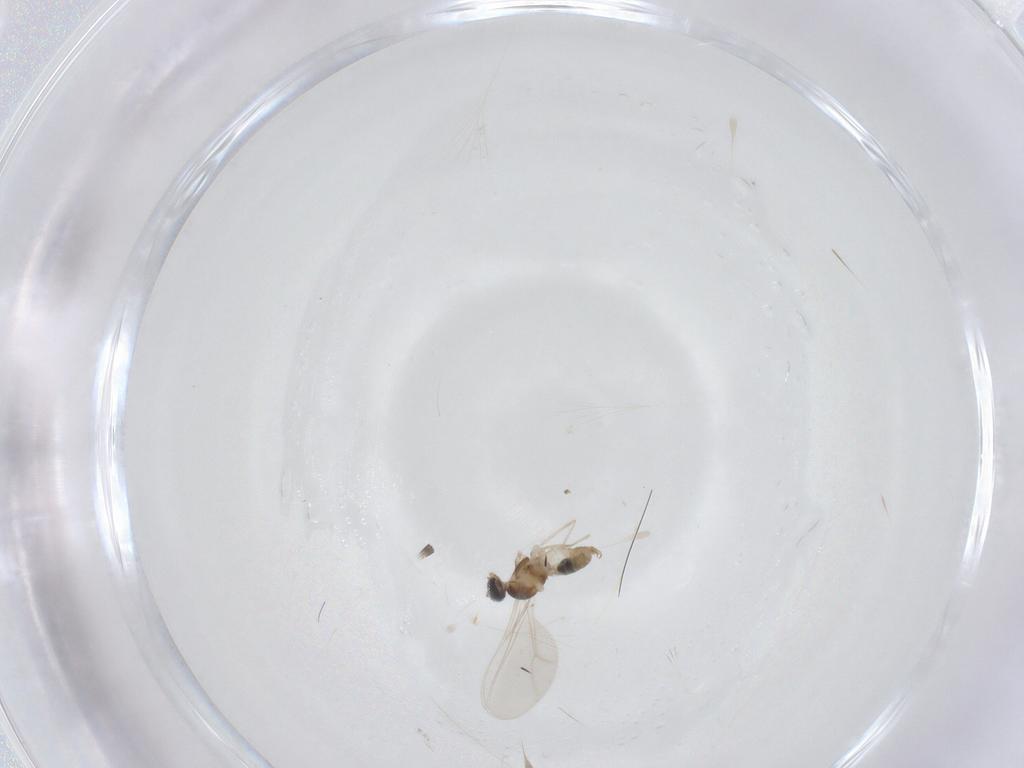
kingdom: Animalia
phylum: Arthropoda
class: Insecta
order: Diptera
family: Cecidomyiidae
